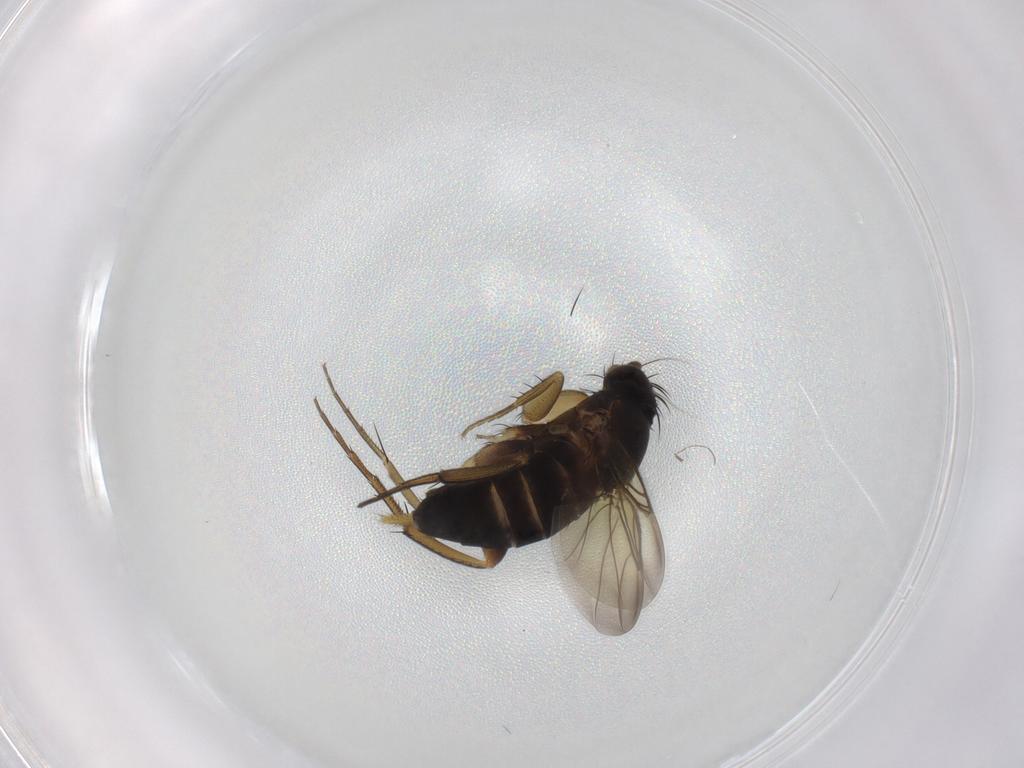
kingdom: Animalia
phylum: Arthropoda
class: Insecta
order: Diptera
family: Phoridae
